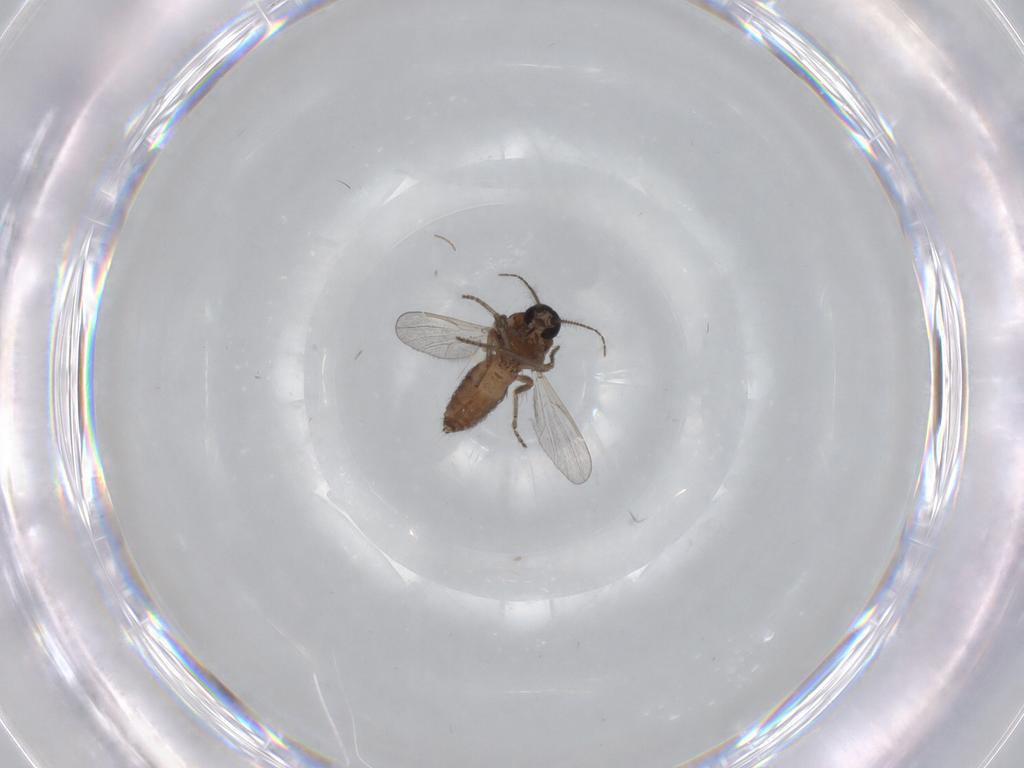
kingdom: Animalia
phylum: Arthropoda
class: Insecta
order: Diptera
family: Ceratopogonidae
